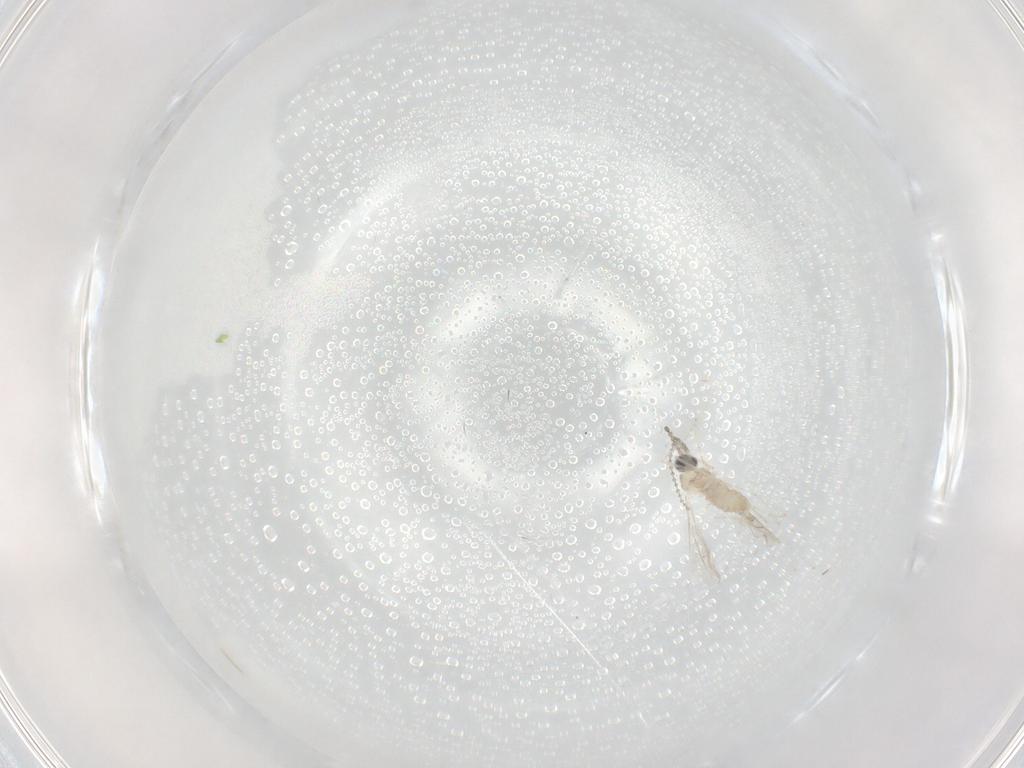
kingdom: Animalia
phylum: Arthropoda
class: Insecta
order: Diptera
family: Cecidomyiidae
